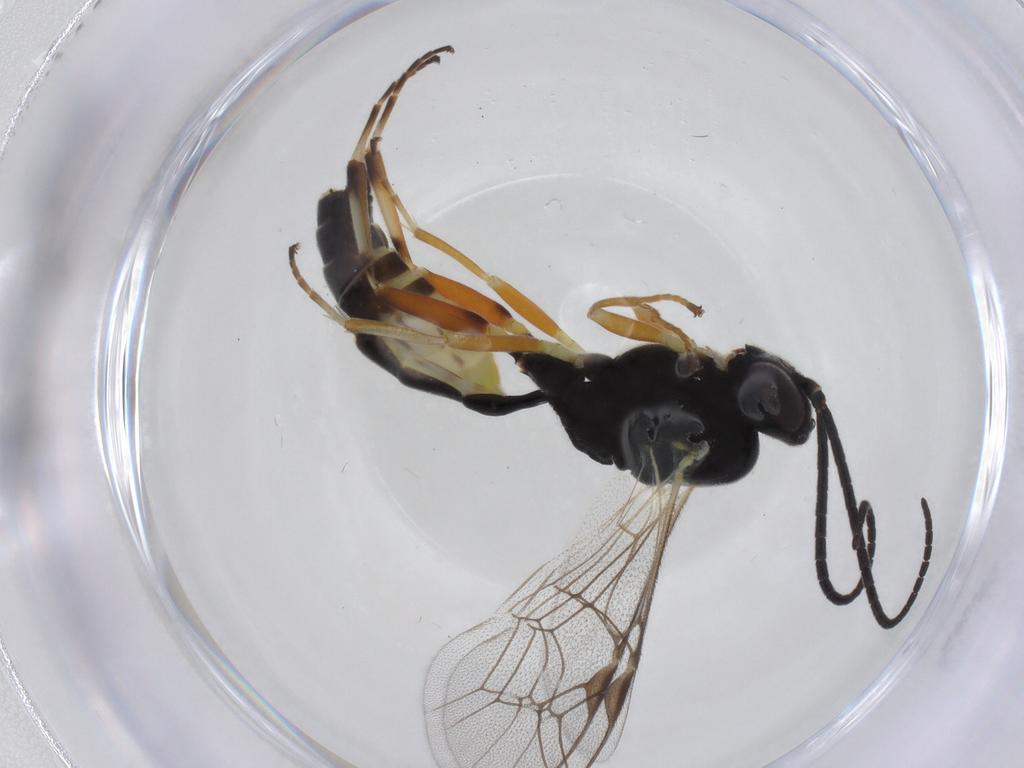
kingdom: Animalia
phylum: Arthropoda
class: Insecta
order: Hymenoptera
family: Ichneumonidae
